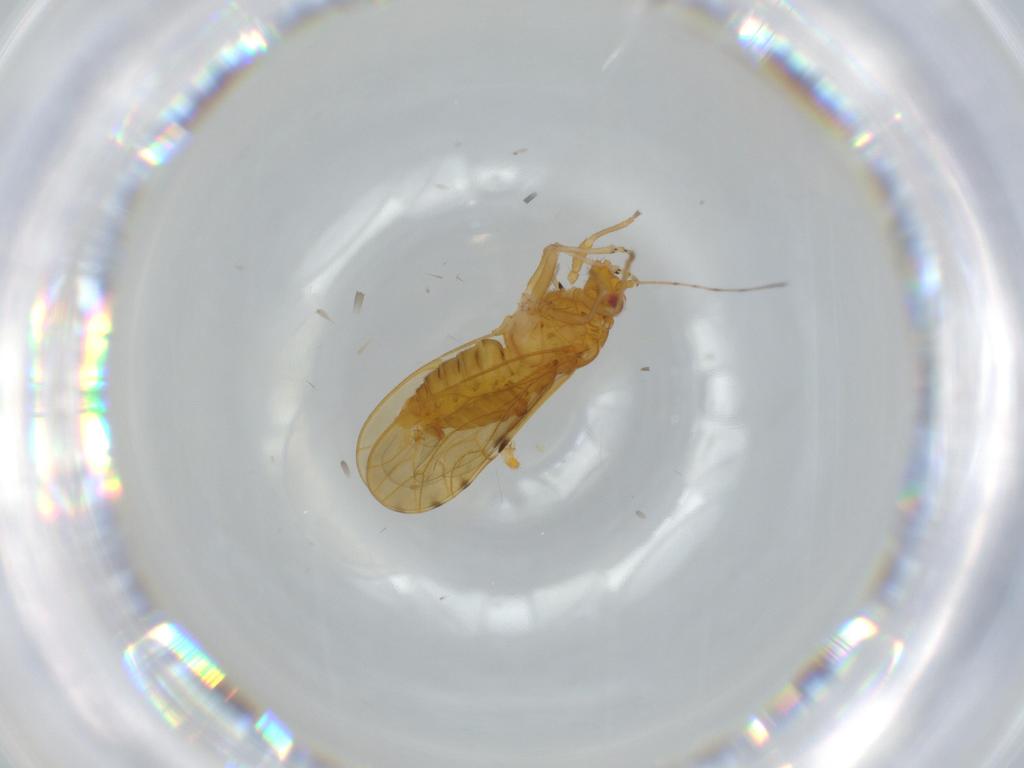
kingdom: Animalia
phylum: Arthropoda
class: Insecta
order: Hemiptera
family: Psylloidea_incertae_sedis
